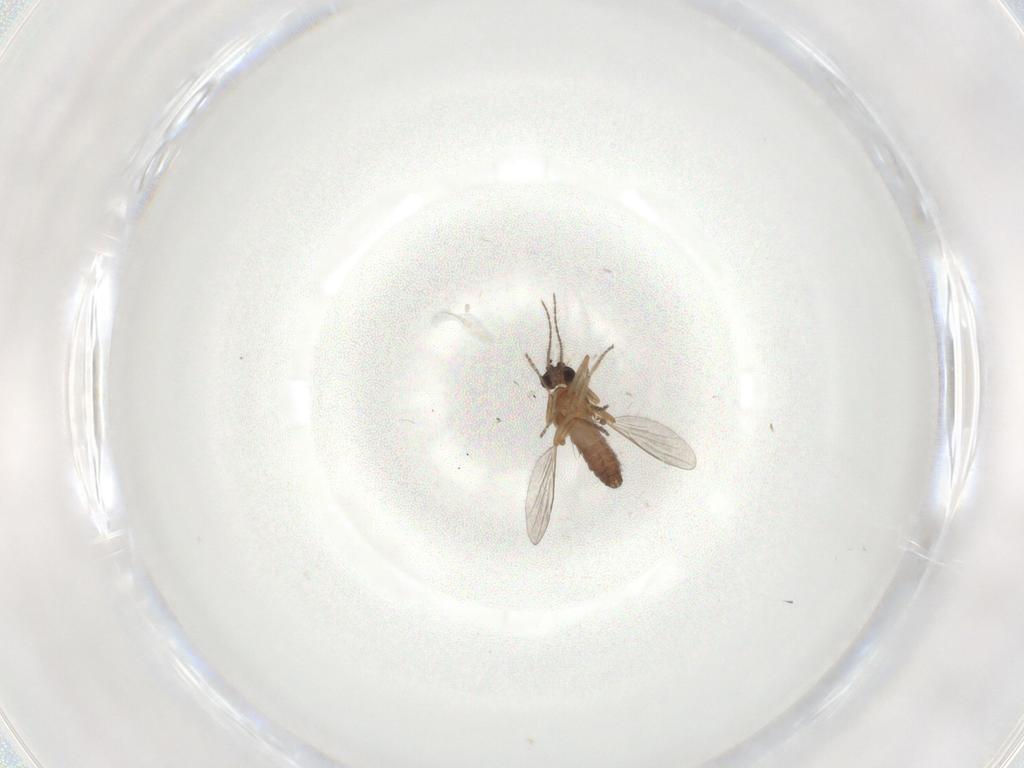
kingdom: Animalia
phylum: Arthropoda
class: Insecta
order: Diptera
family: Ceratopogonidae
